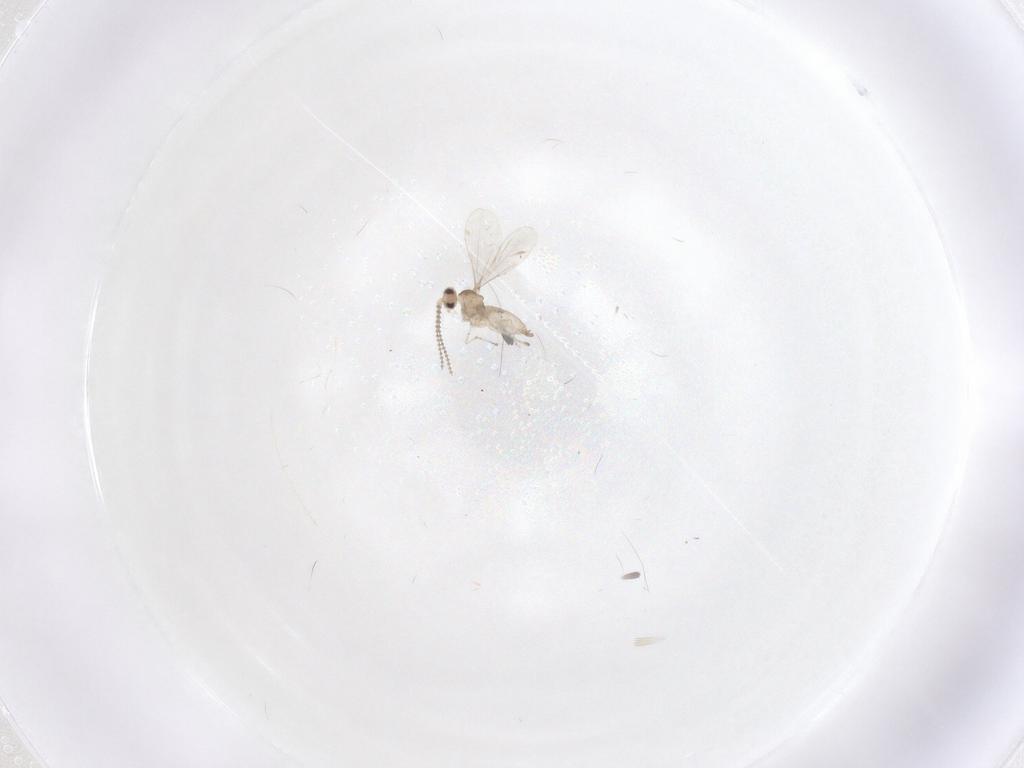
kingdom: Animalia
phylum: Arthropoda
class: Insecta
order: Diptera
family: Cecidomyiidae
